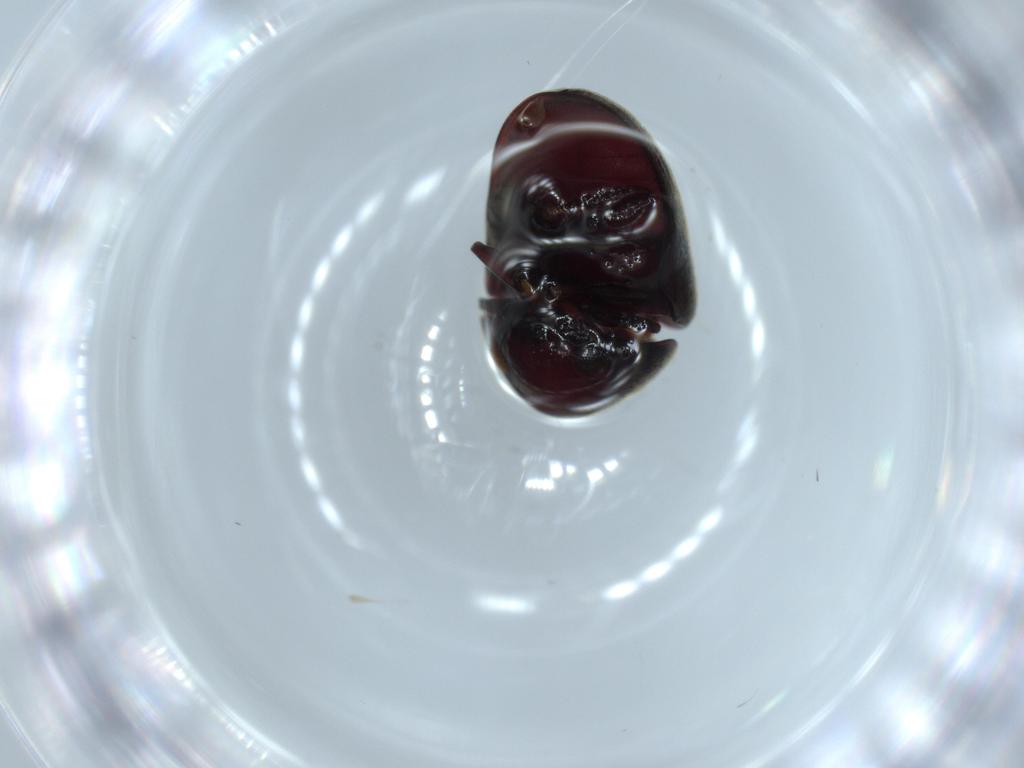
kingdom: Animalia
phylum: Arthropoda
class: Insecta
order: Coleoptera
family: Ptinidae
